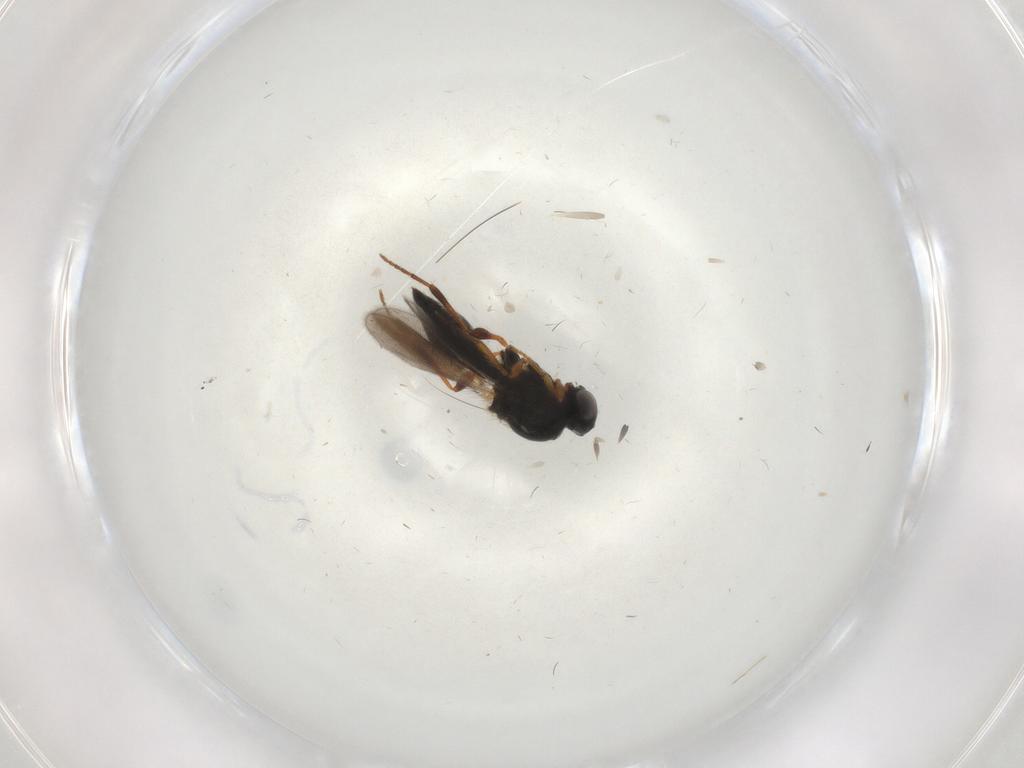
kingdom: Animalia
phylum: Arthropoda
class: Insecta
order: Hymenoptera
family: Platygastridae
